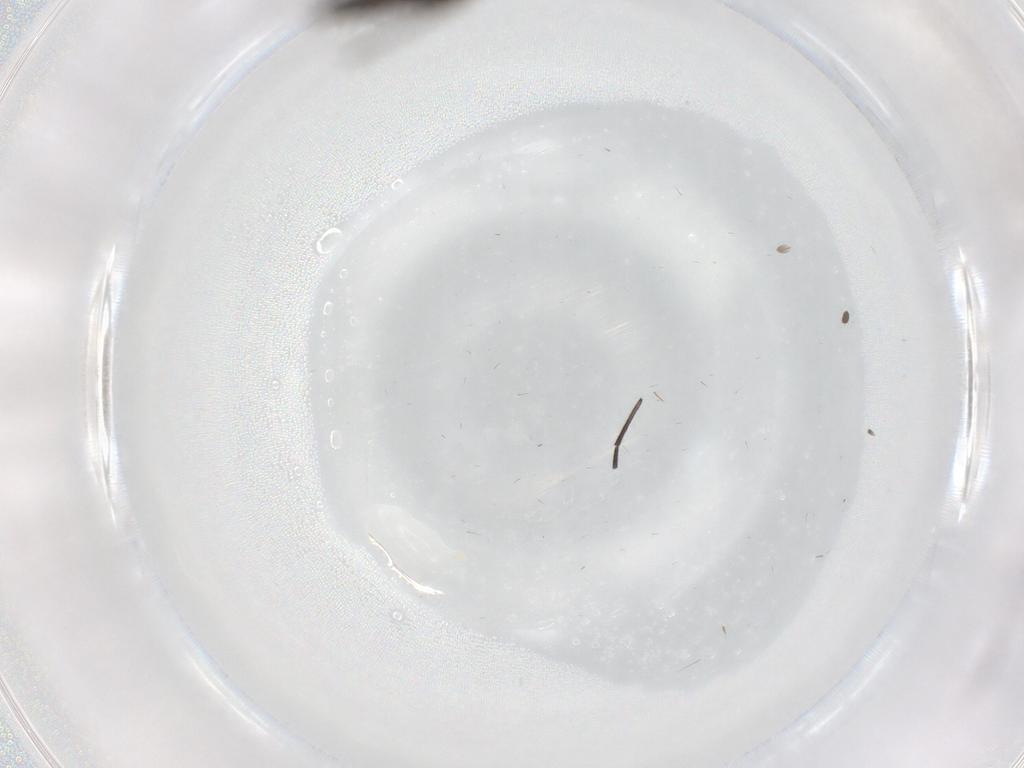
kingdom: Animalia
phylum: Arthropoda
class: Insecta
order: Diptera
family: Sciaridae
